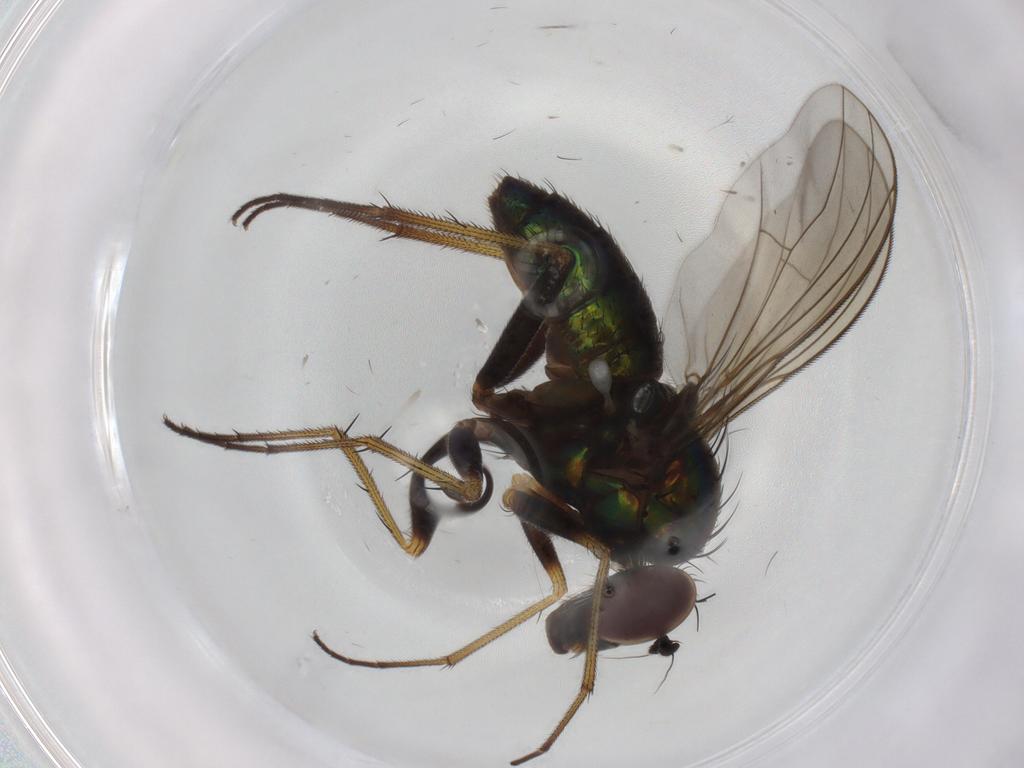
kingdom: Animalia
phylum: Arthropoda
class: Insecta
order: Diptera
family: Dolichopodidae
